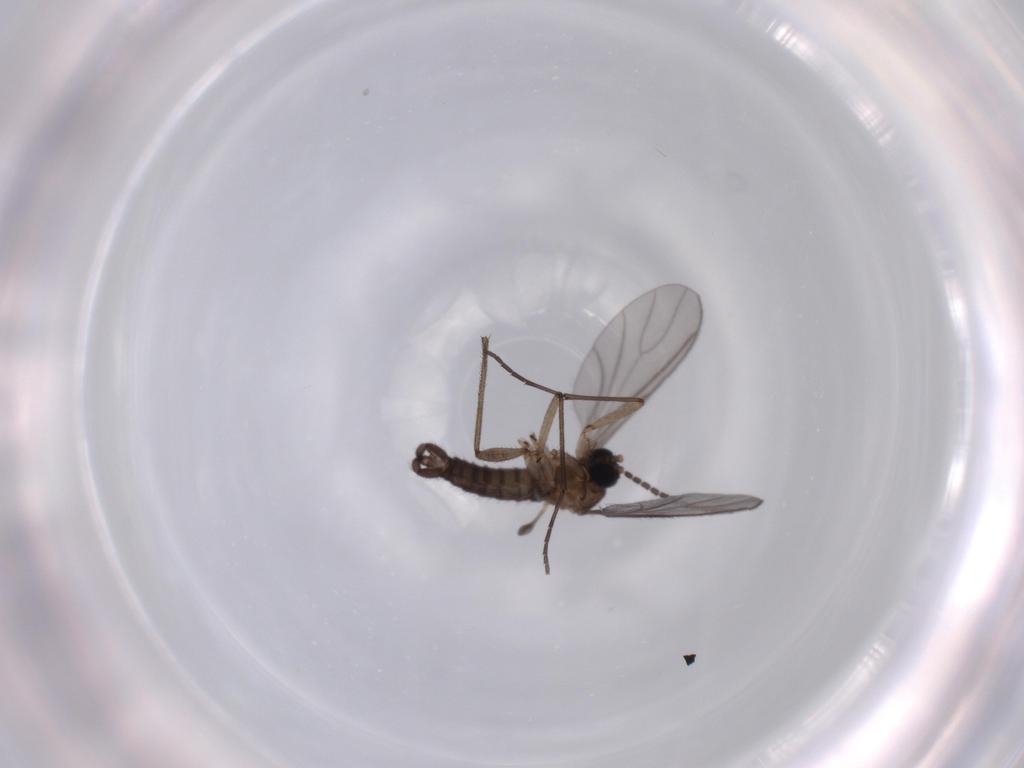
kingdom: Animalia
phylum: Arthropoda
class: Insecta
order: Diptera
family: Sciaridae
